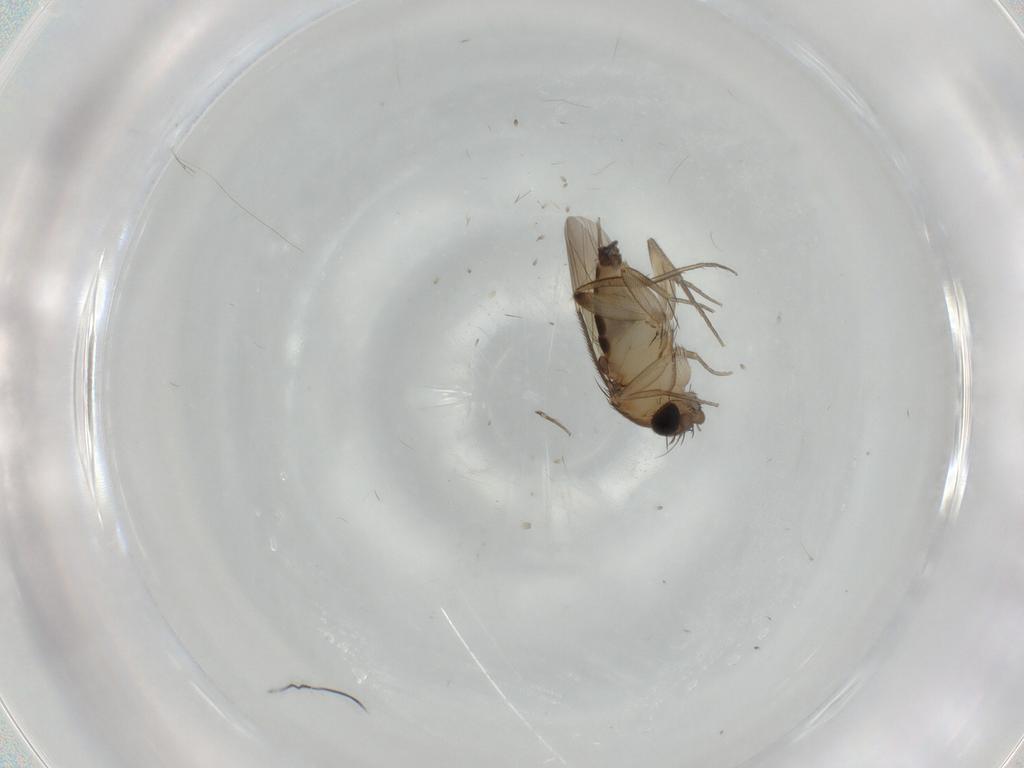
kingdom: Animalia
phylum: Arthropoda
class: Insecta
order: Diptera
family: Phoridae
